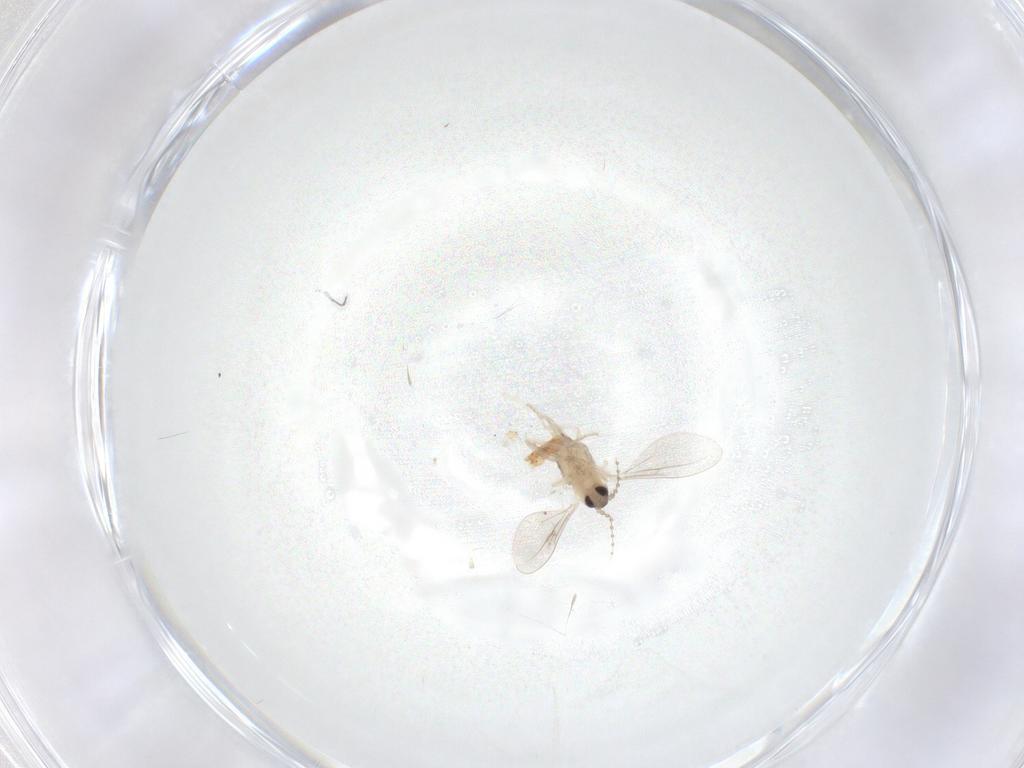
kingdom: Animalia
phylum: Arthropoda
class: Insecta
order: Diptera
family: Cecidomyiidae
